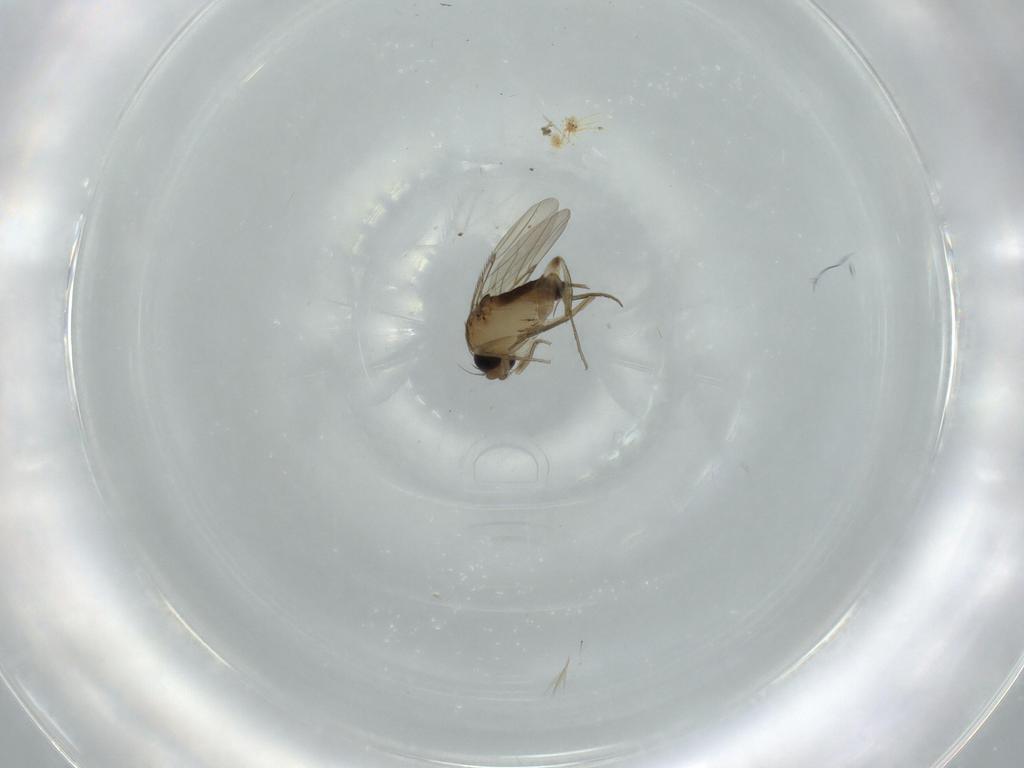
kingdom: Animalia
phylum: Arthropoda
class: Insecta
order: Diptera
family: Phoridae
